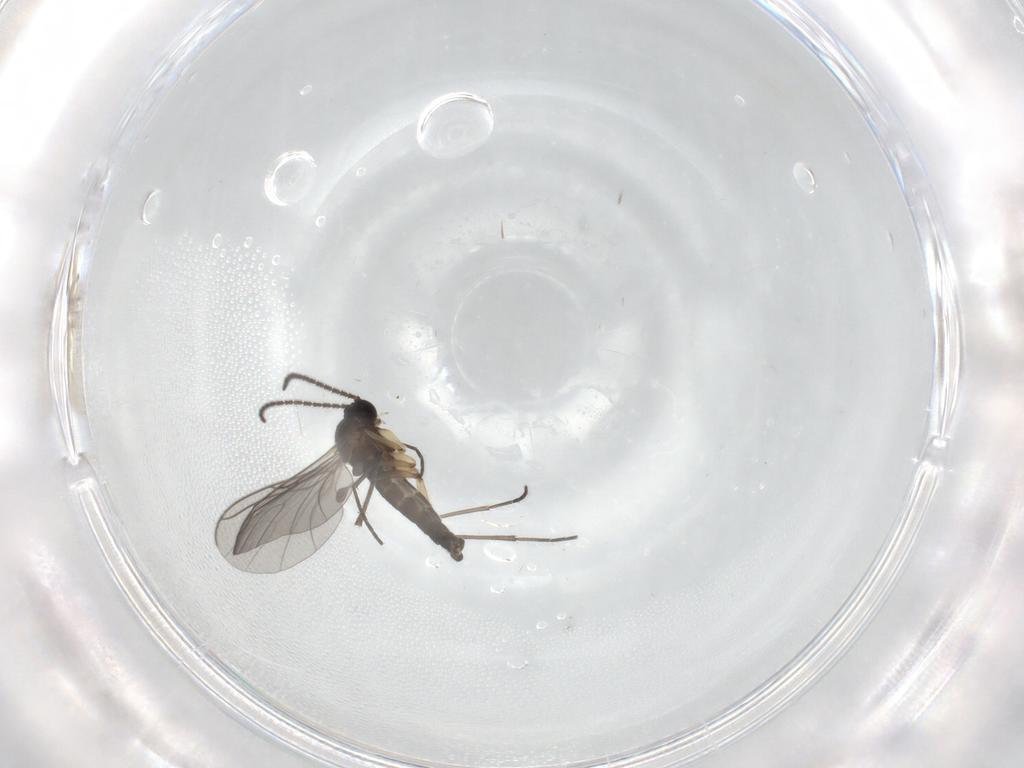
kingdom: Animalia
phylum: Arthropoda
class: Insecta
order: Diptera
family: Sciaridae
